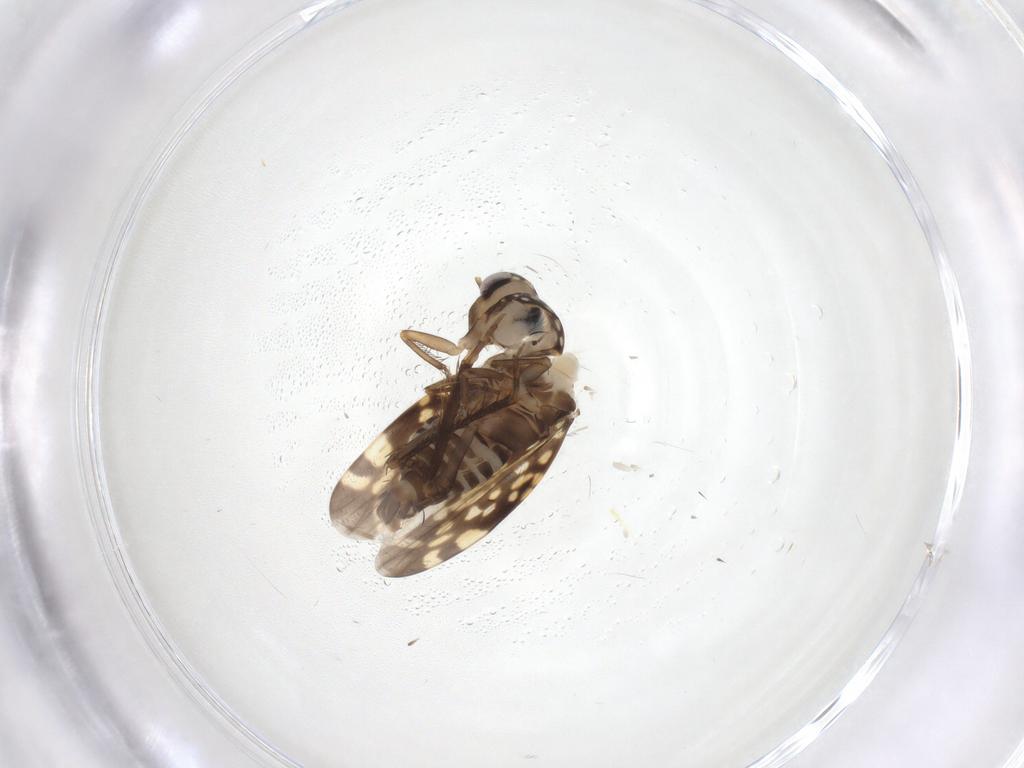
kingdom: Animalia
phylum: Arthropoda
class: Insecta
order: Hemiptera
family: Cicadellidae
